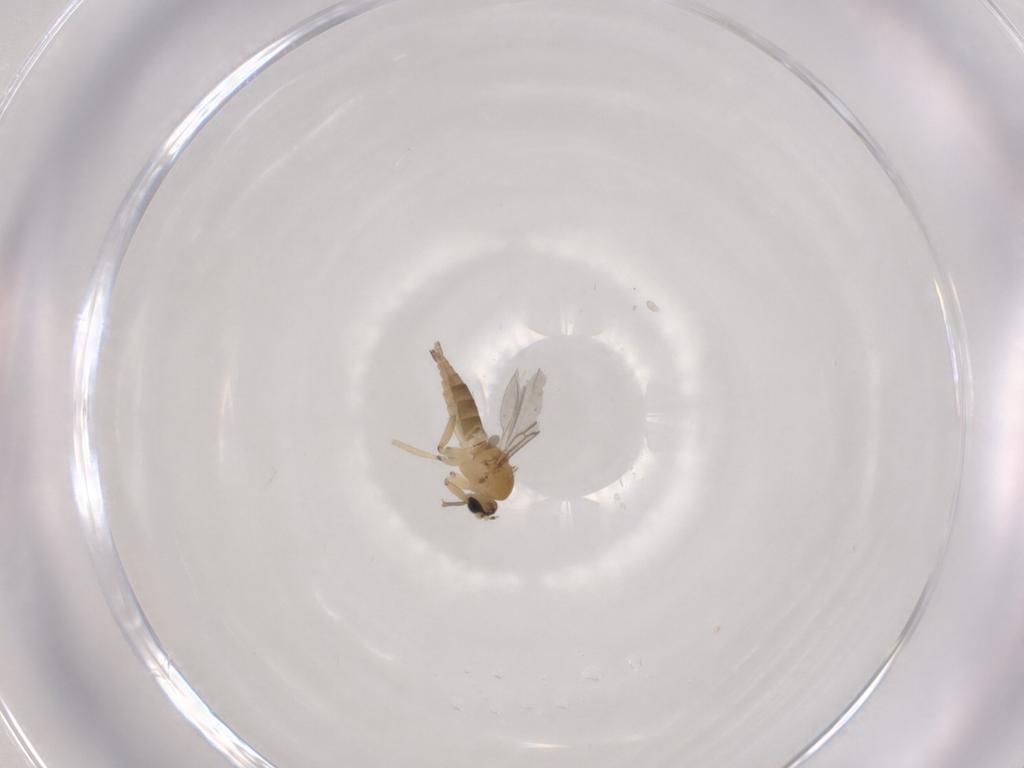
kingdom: Animalia
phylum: Arthropoda
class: Insecta
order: Diptera
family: Sciaridae
